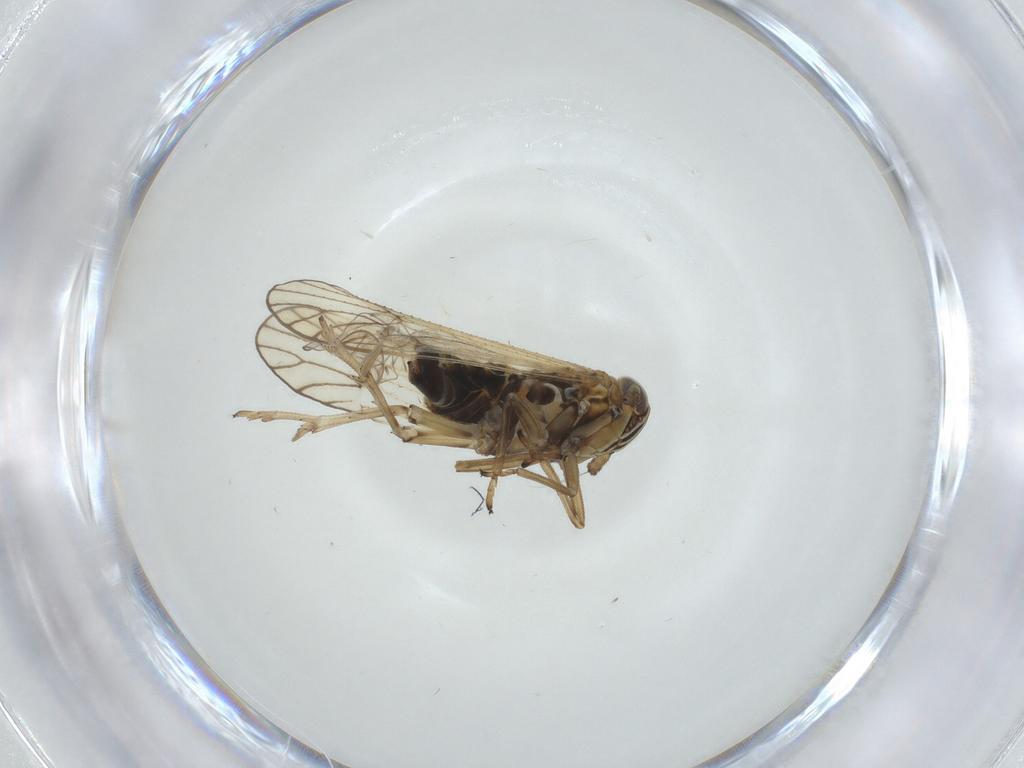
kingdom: Animalia
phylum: Arthropoda
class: Insecta
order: Hemiptera
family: Delphacidae
